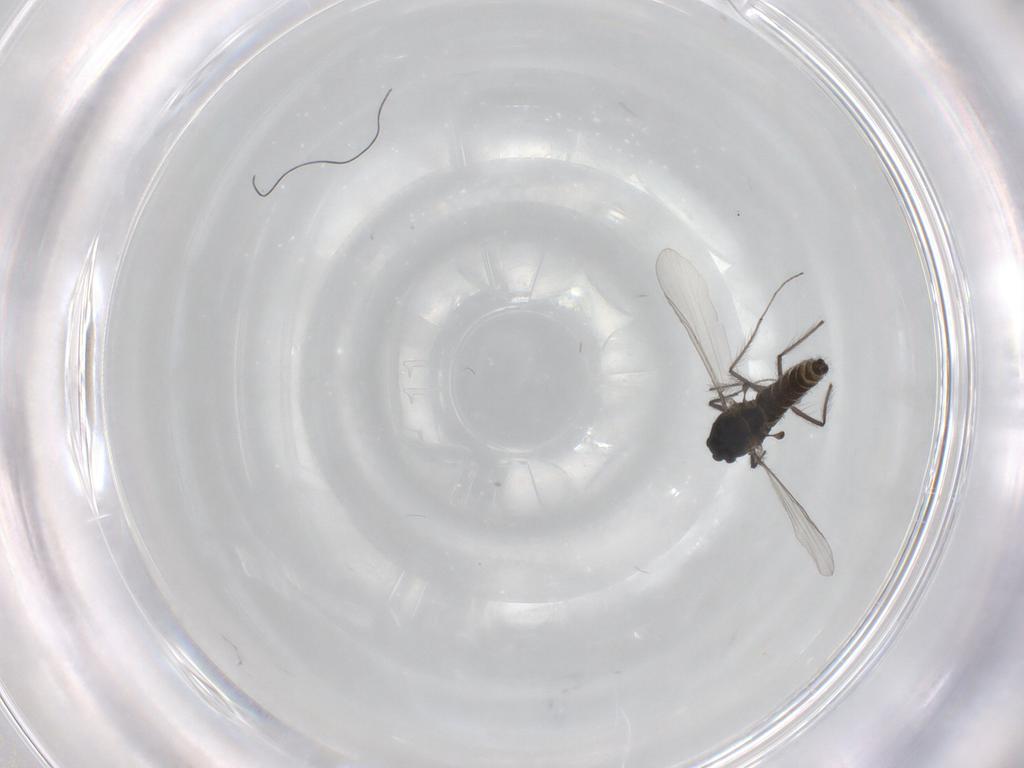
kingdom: Animalia
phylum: Arthropoda
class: Insecta
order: Diptera
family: Chironomidae
